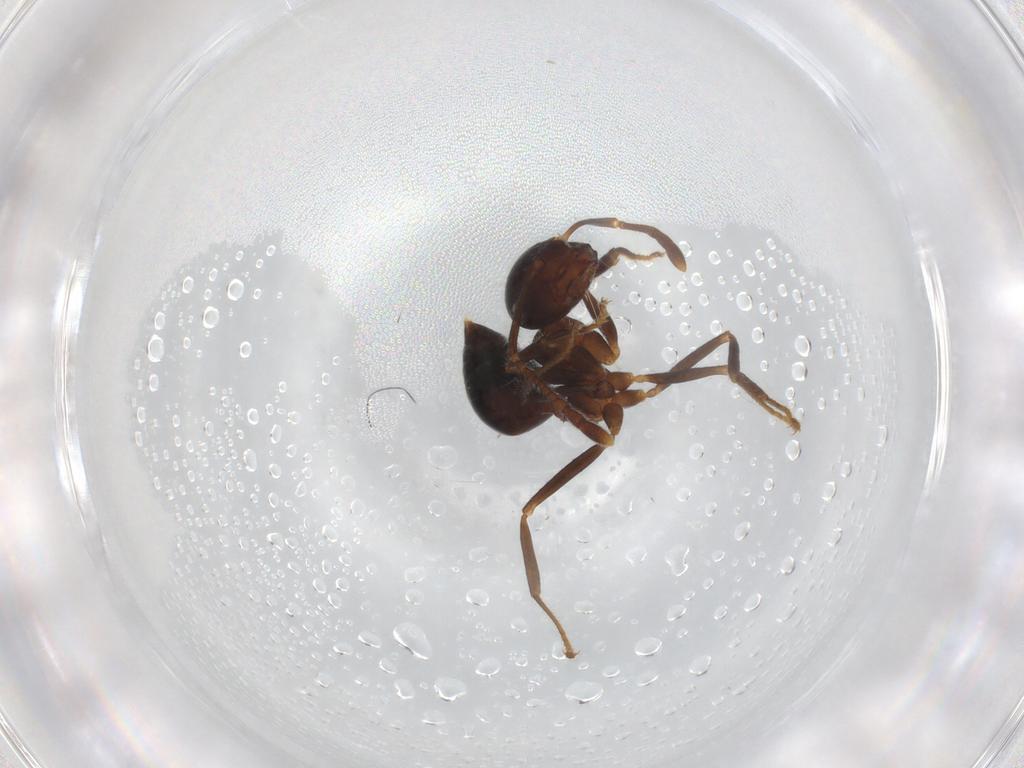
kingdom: Animalia
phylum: Arthropoda
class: Insecta
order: Hymenoptera
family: Formicidae
